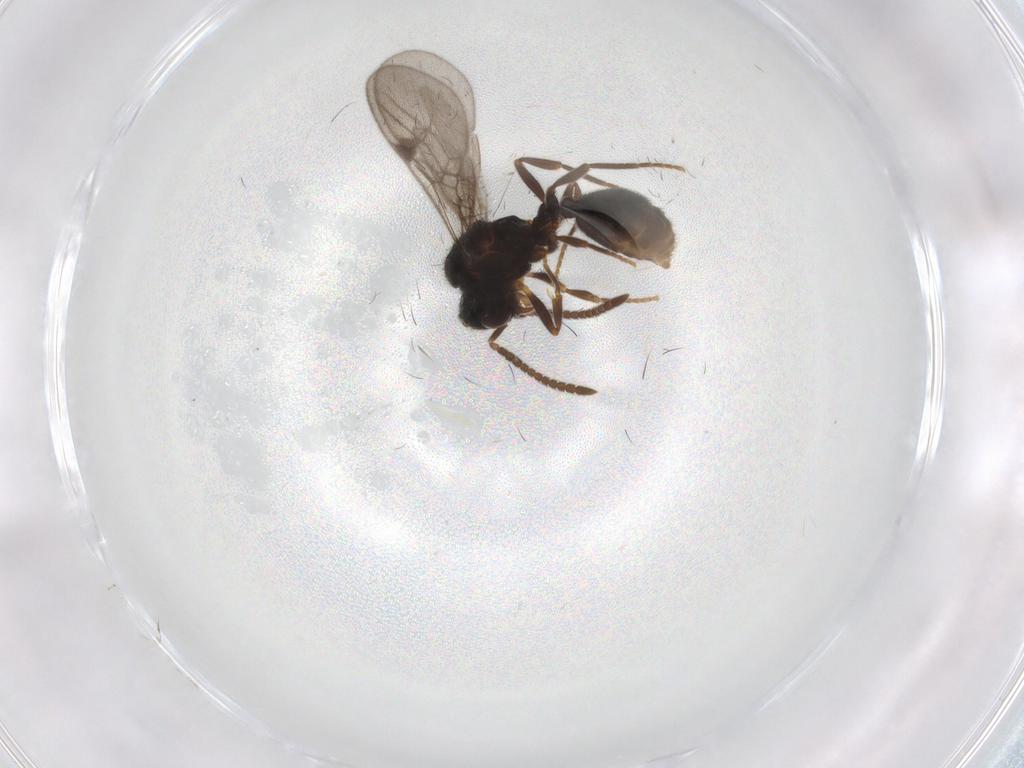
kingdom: Animalia
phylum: Arthropoda
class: Insecta
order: Hymenoptera
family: Formicidae
